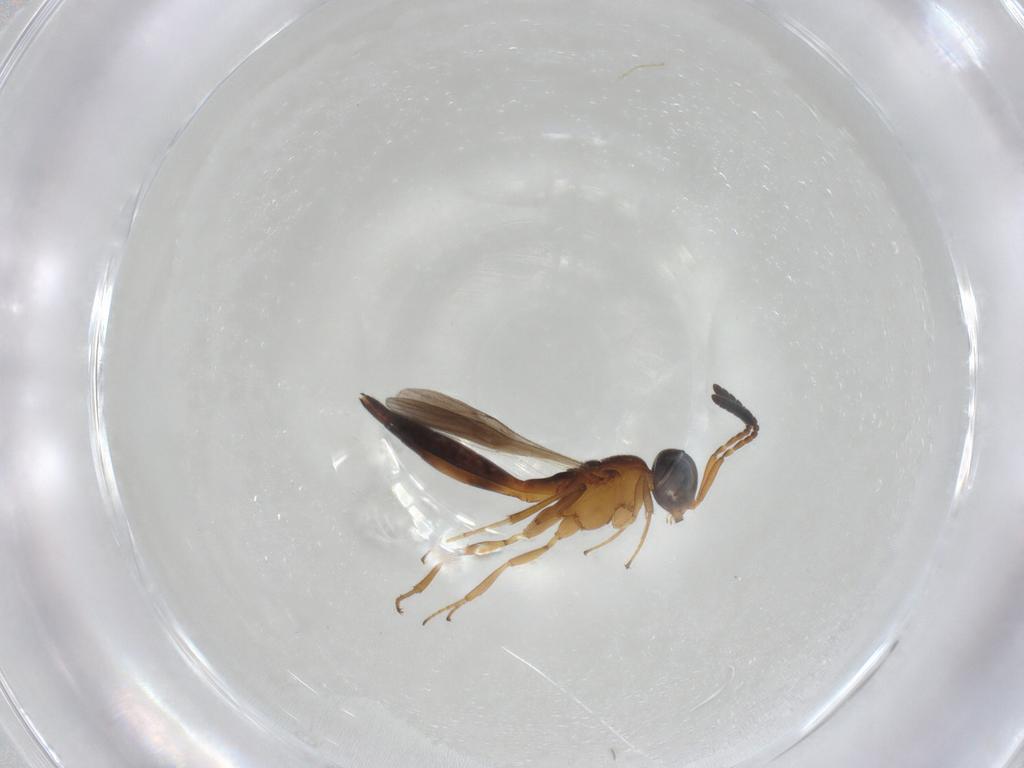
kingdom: Animalia
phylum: Arthropoda
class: Insecta
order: Hymenoptera
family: Scelionidae
